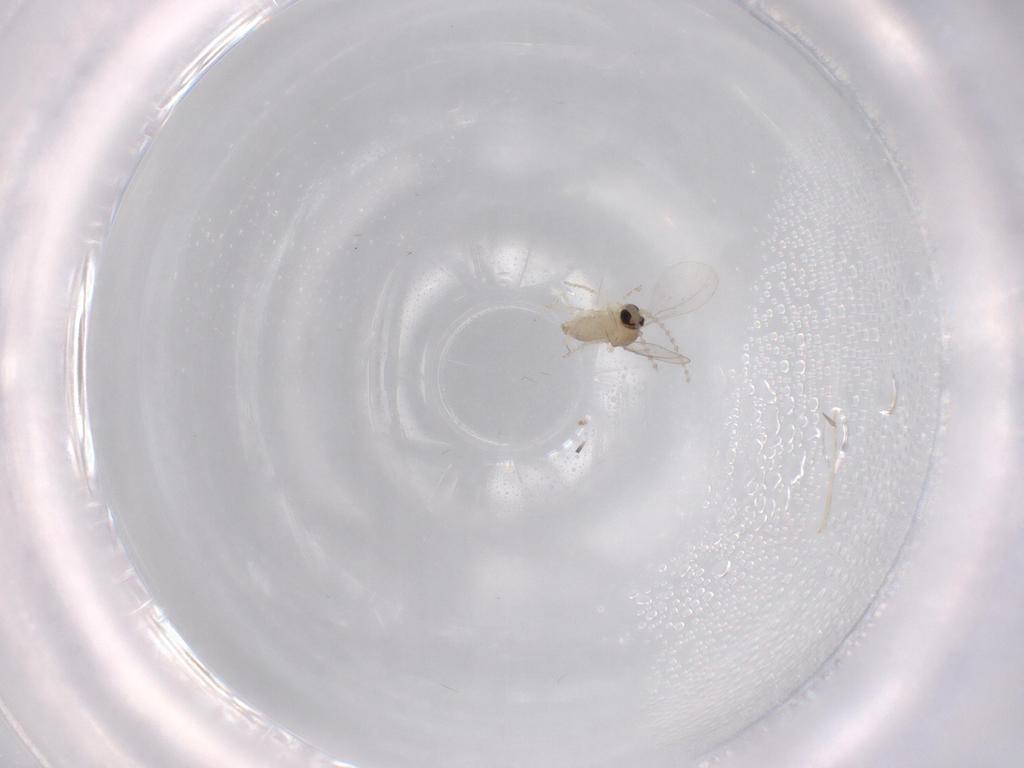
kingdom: Animalia
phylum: Arthropoda
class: Insecta
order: Diptera
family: Cecidomyiidae
